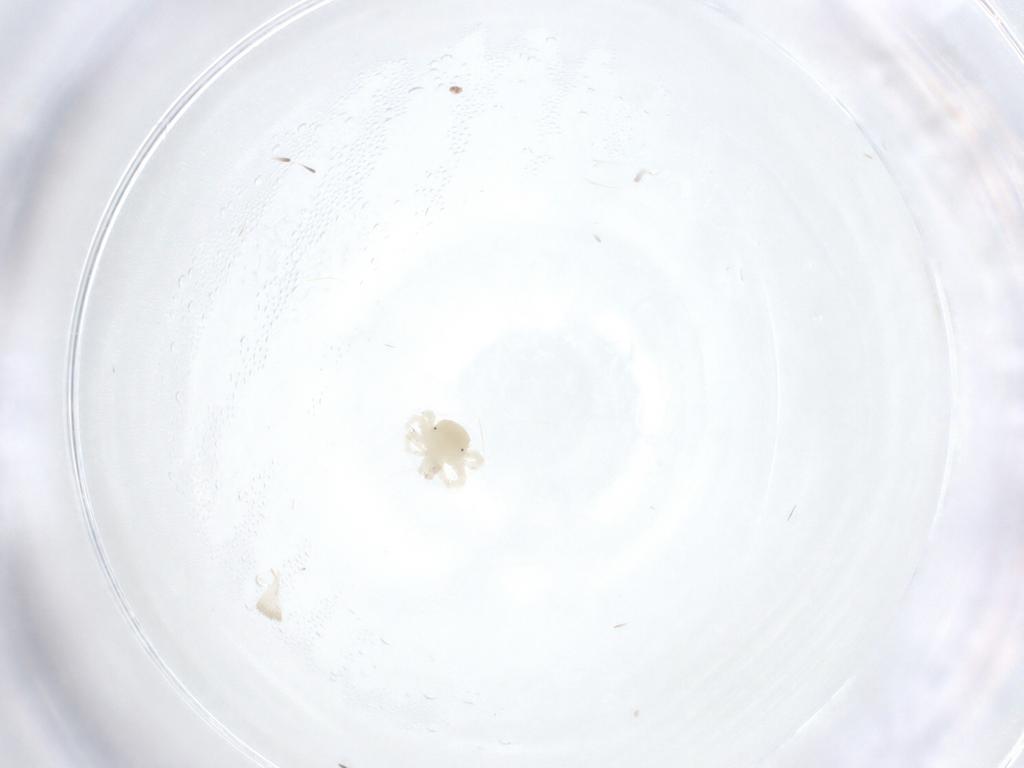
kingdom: Animalia
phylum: Arthropoda
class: Arachnida
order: Trombidiformes
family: Anystidae
